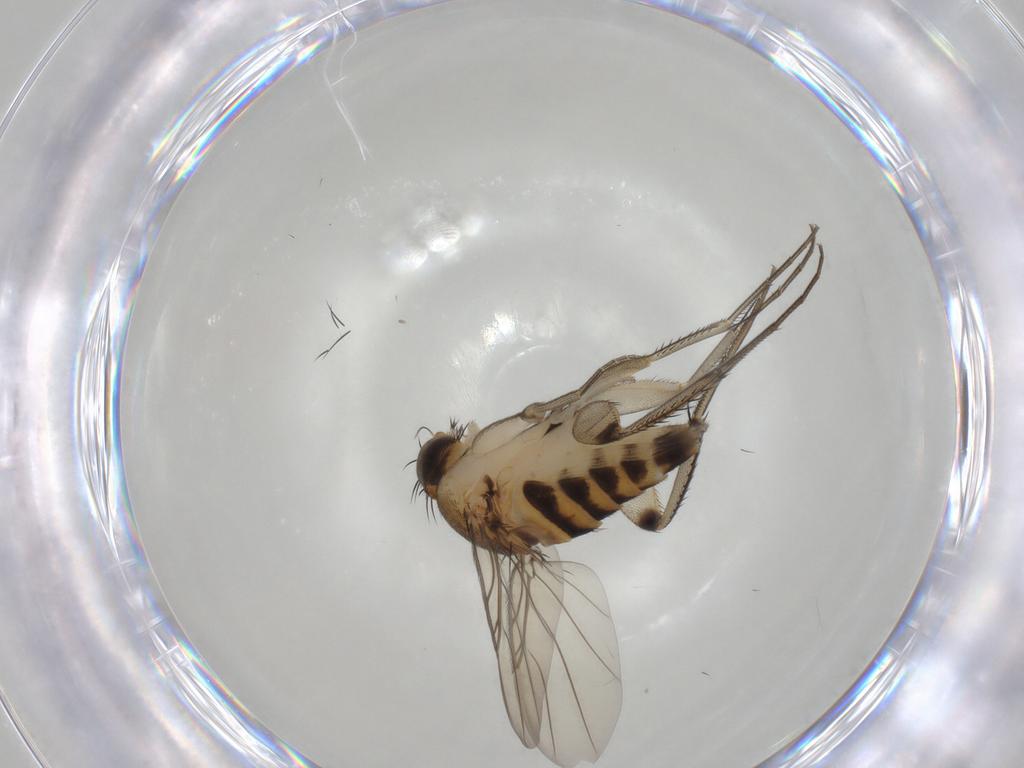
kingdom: Animalia
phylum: Arthropoda
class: Insecta
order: Diptera
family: Phoridae
